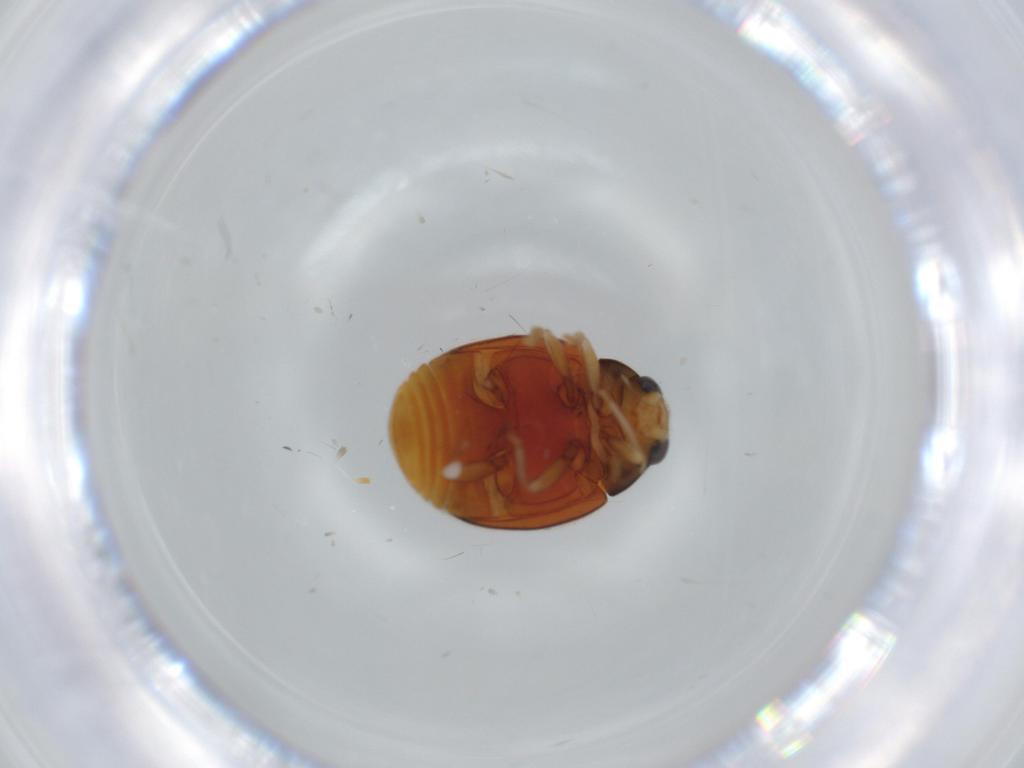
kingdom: Animalia
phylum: Arthropoda
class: Insecta
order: Coleoptera
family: Coccinellidae
